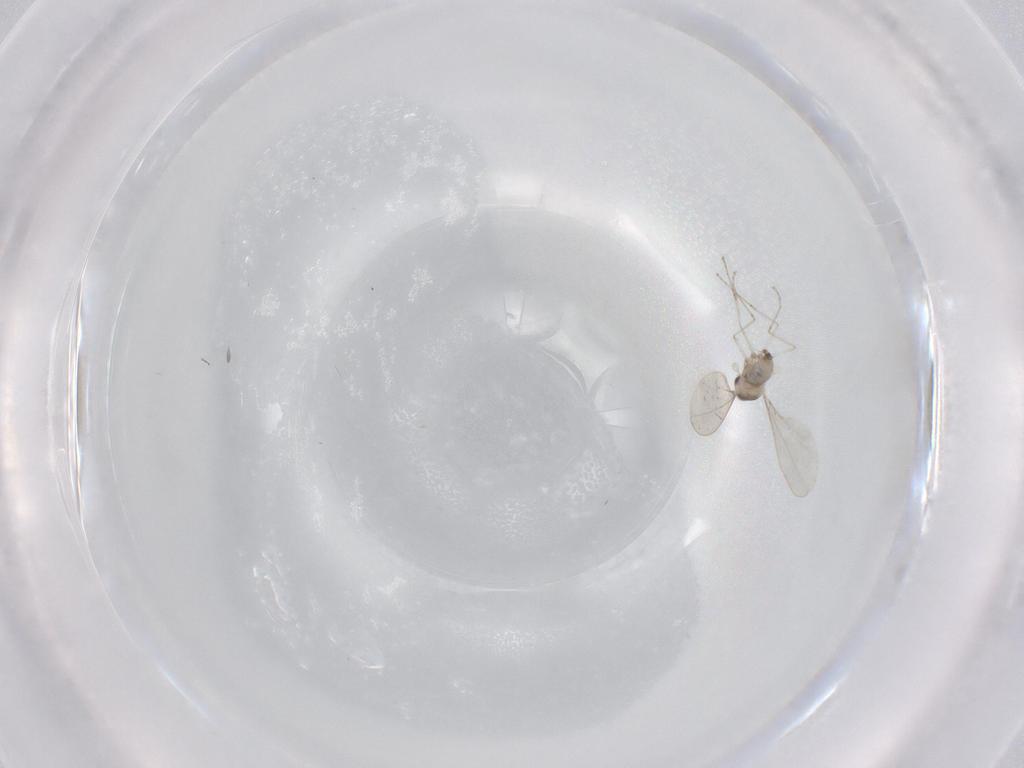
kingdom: Animalia
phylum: Arthropoda
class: Insecta
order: Diptera
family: Cecidomyiidae
